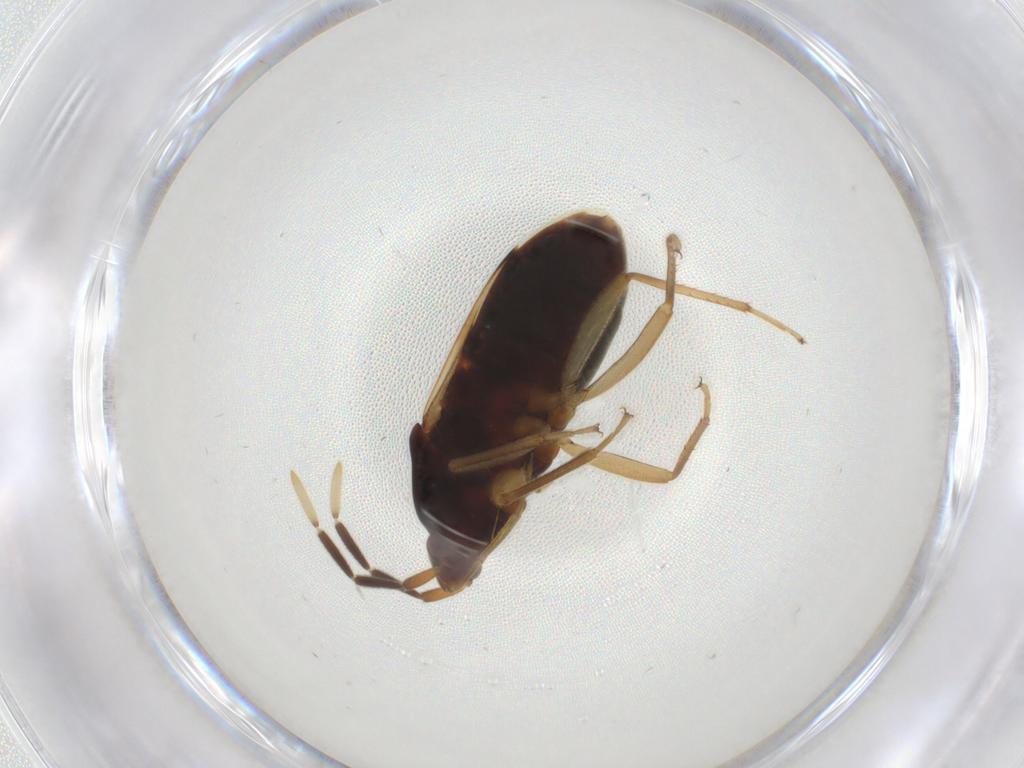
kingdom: Animalia
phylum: Arthropoda
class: Insecta
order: Hemiptera
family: Rhyparochromidae
